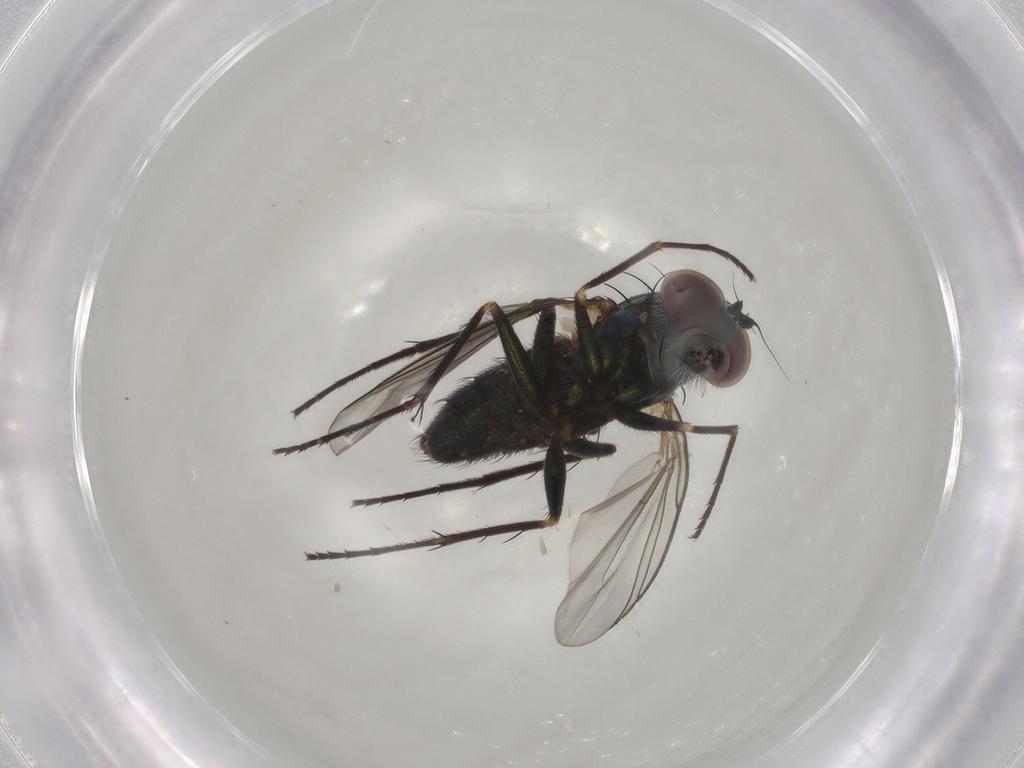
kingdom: Animalia
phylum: Arthropoda
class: Insecta
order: Diptera
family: Dolichopodidae
